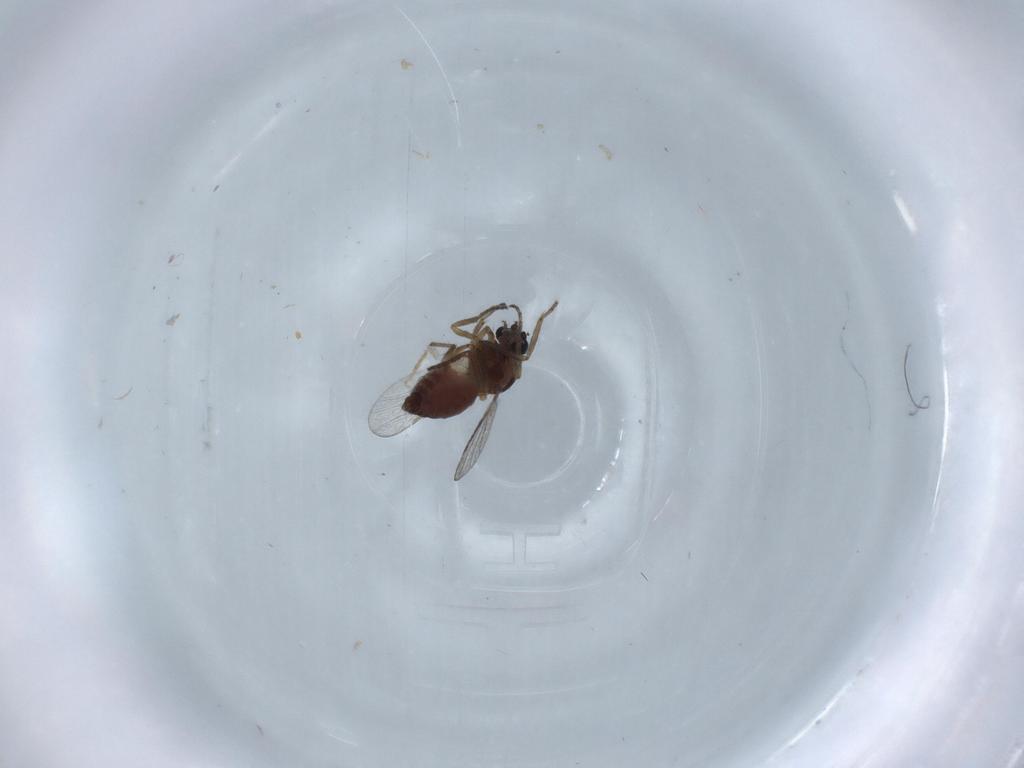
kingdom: Animalia
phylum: Arthropoda
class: Insecta
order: Diptera
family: Ceratopogonidae
